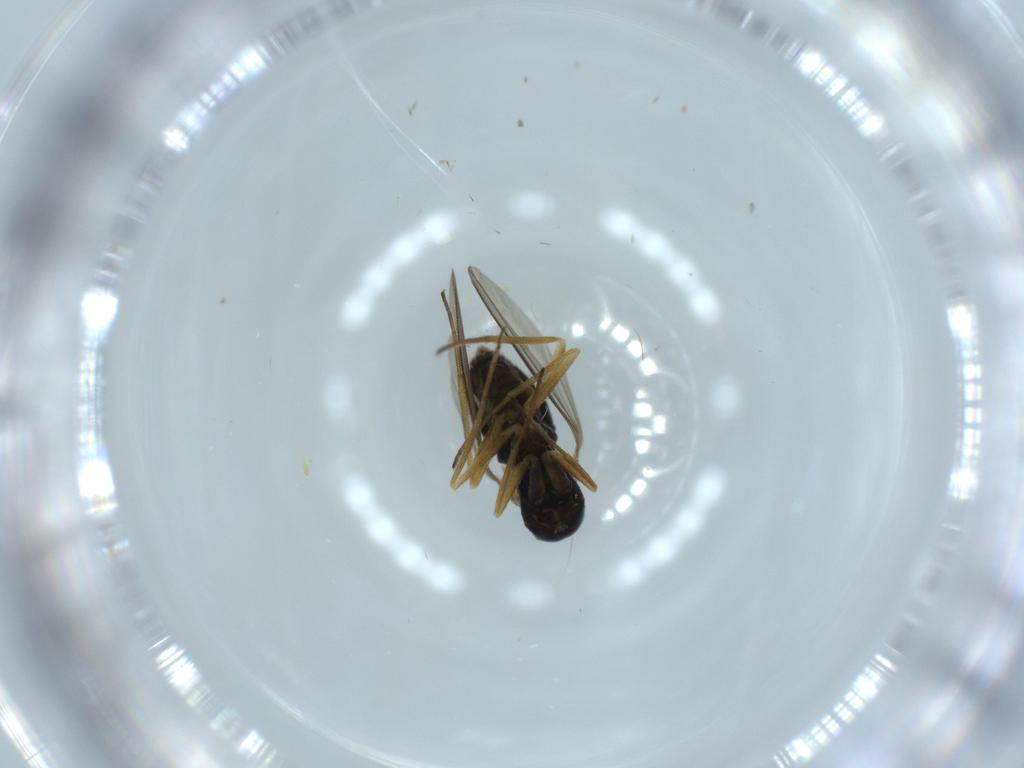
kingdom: Animalia
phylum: Arthropoda
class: Insecta
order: Diptera
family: Dolichopodidae
